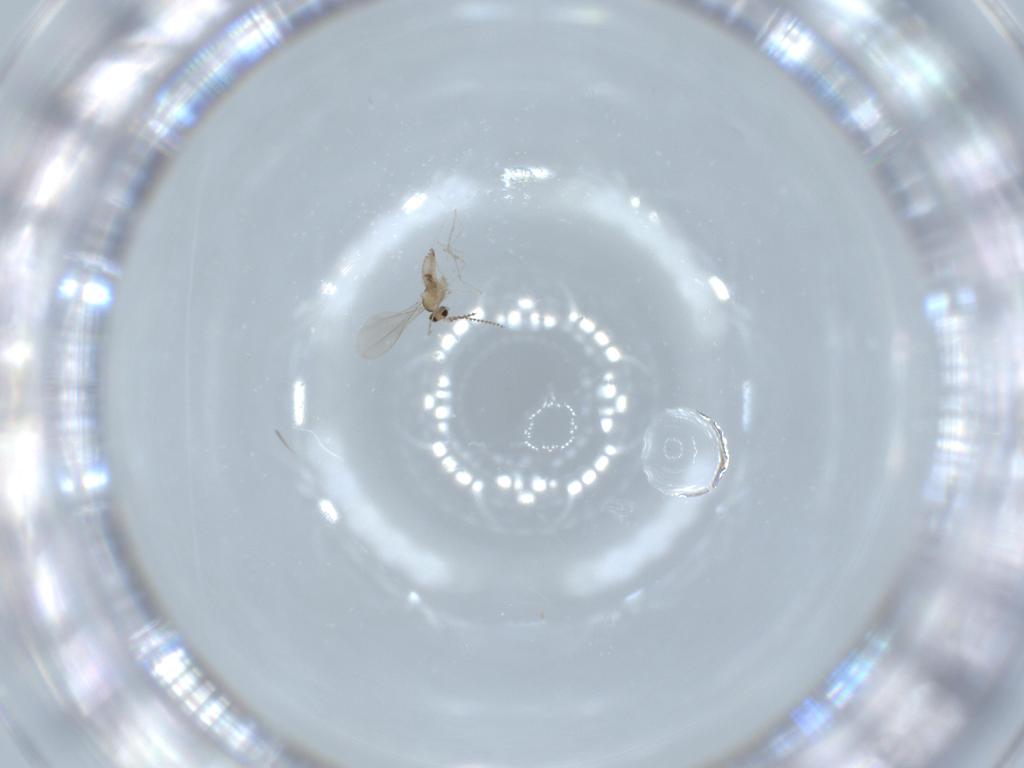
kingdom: Animalia
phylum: Arthropoda
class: Insecta
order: Diptera
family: Cecidomyiidae
